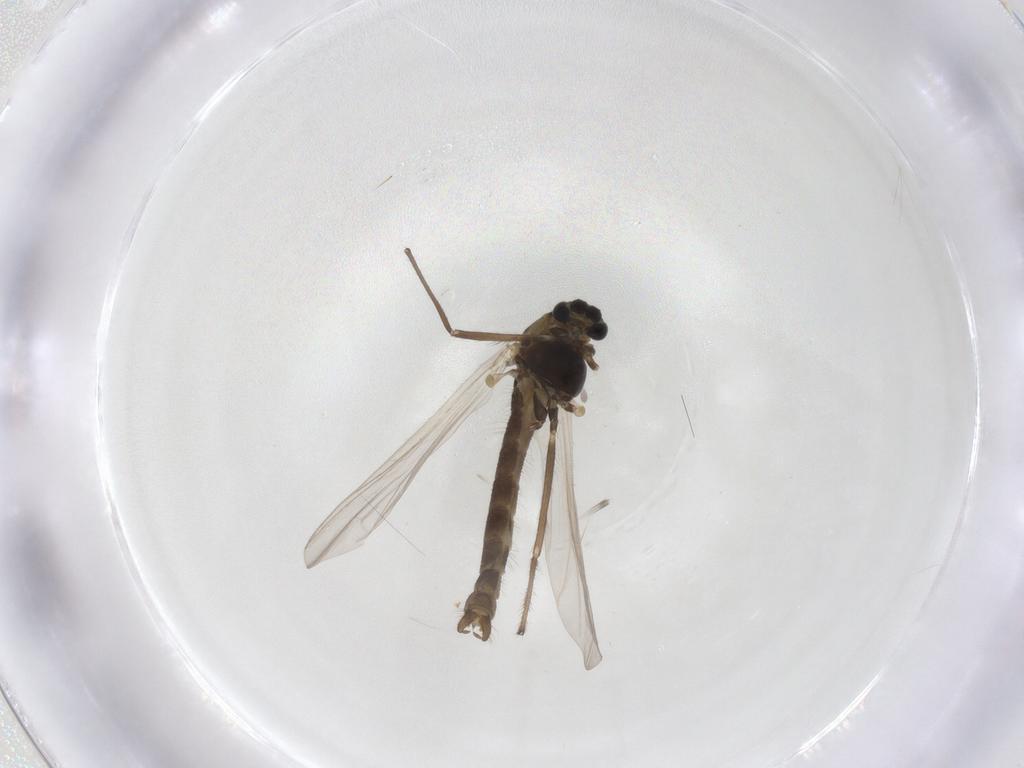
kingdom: Animalia
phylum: Arthropoda
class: Insecta
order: Diptera
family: Chironomidae
